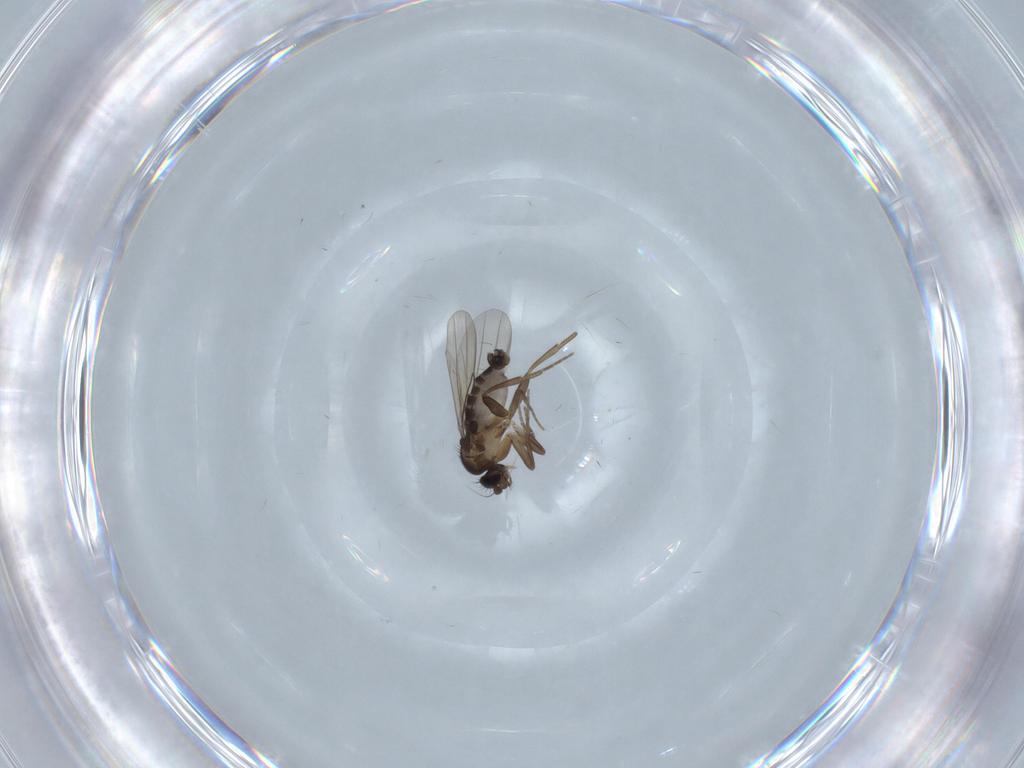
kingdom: Animalia
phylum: Arthropoda
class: Insecta
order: Diptera
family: Phoridae
